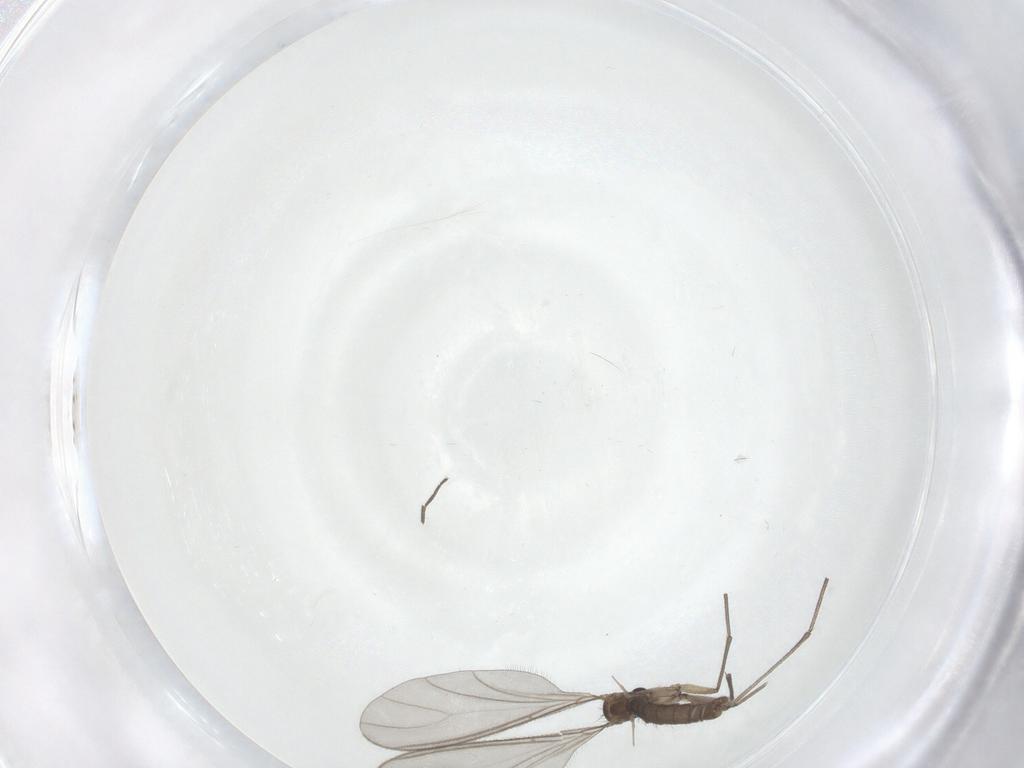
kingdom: Animalia
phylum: Arthropoda
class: Insecta
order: Diptera
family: Sciaridae
